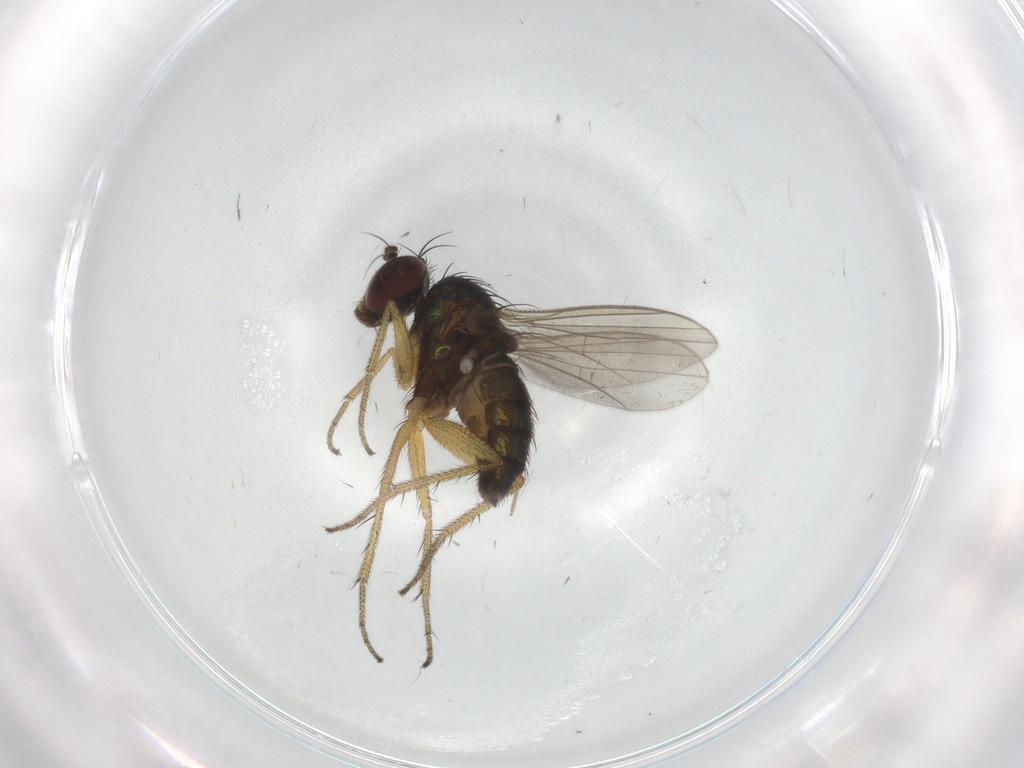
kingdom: Animalia
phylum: Arthropoda
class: Insecta
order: Diptera
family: Dolichopodidae
